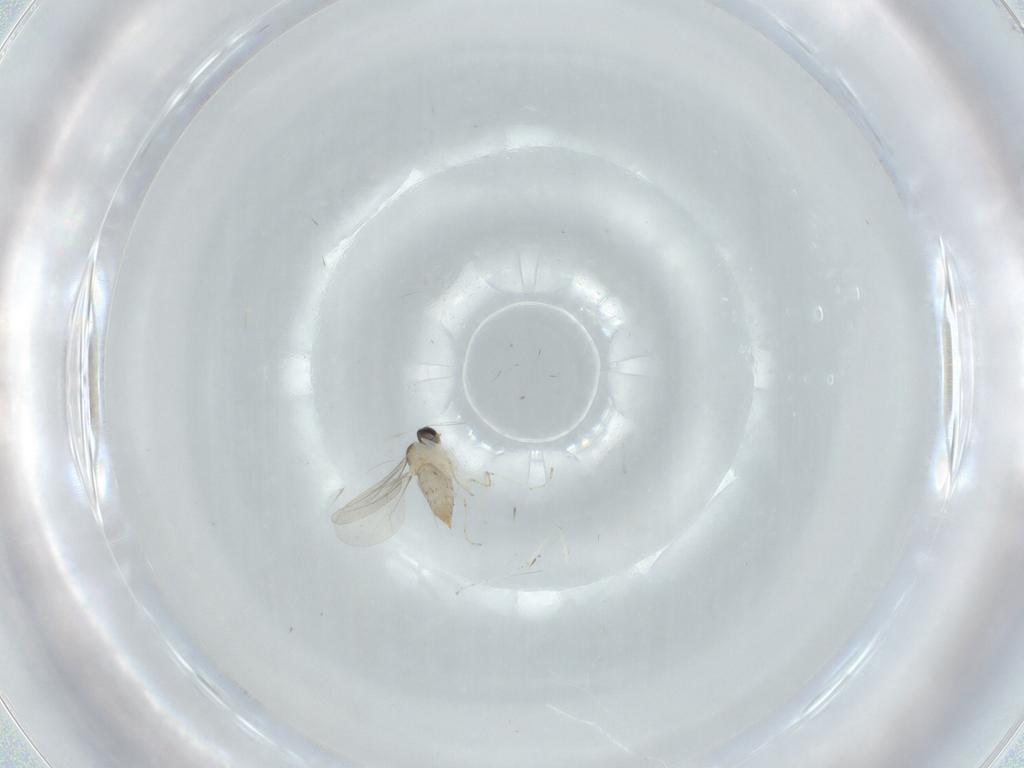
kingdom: Animalia
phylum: Arthropoda
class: Insecta
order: Diptera
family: Cecidomyiidae
